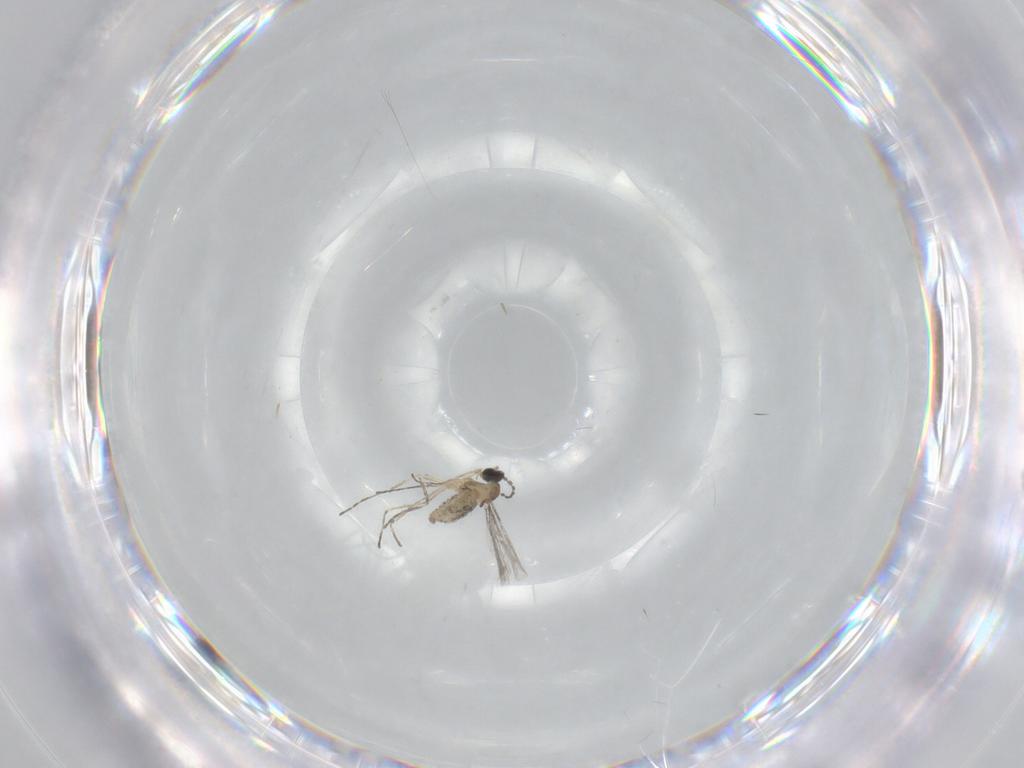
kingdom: Animalia
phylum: Arthropoda
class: Insecta
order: Diptera
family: Cecidomyiidae
